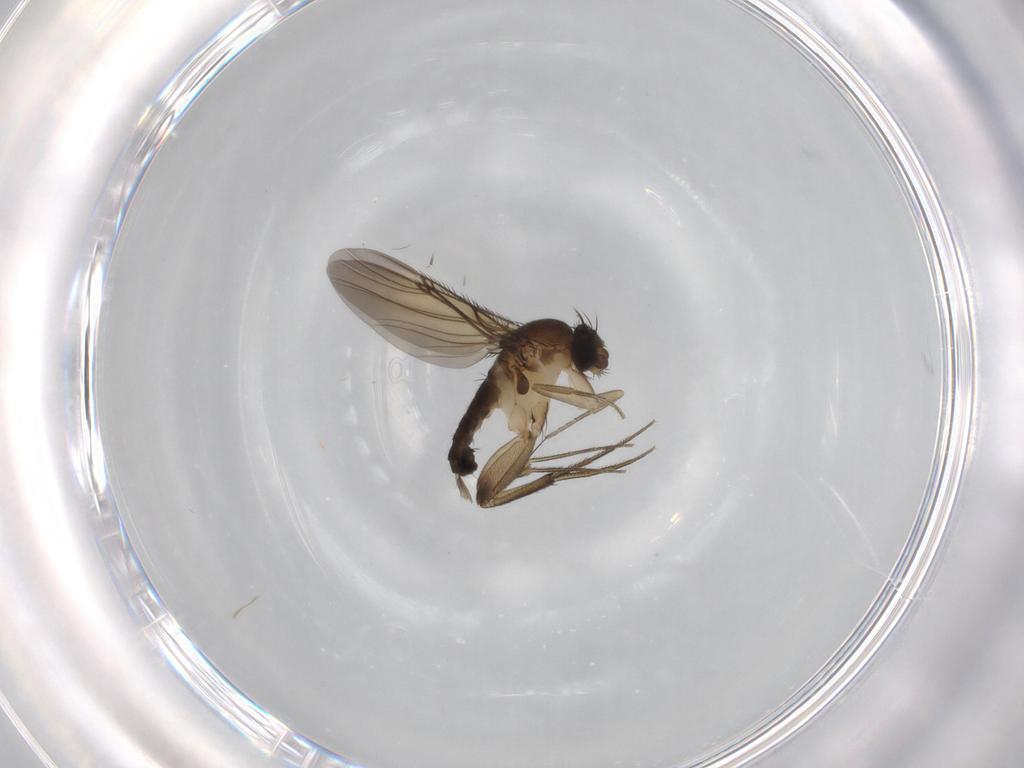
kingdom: Animalia
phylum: Arthropoda
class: Insecta
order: Diptera
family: Phoridae
